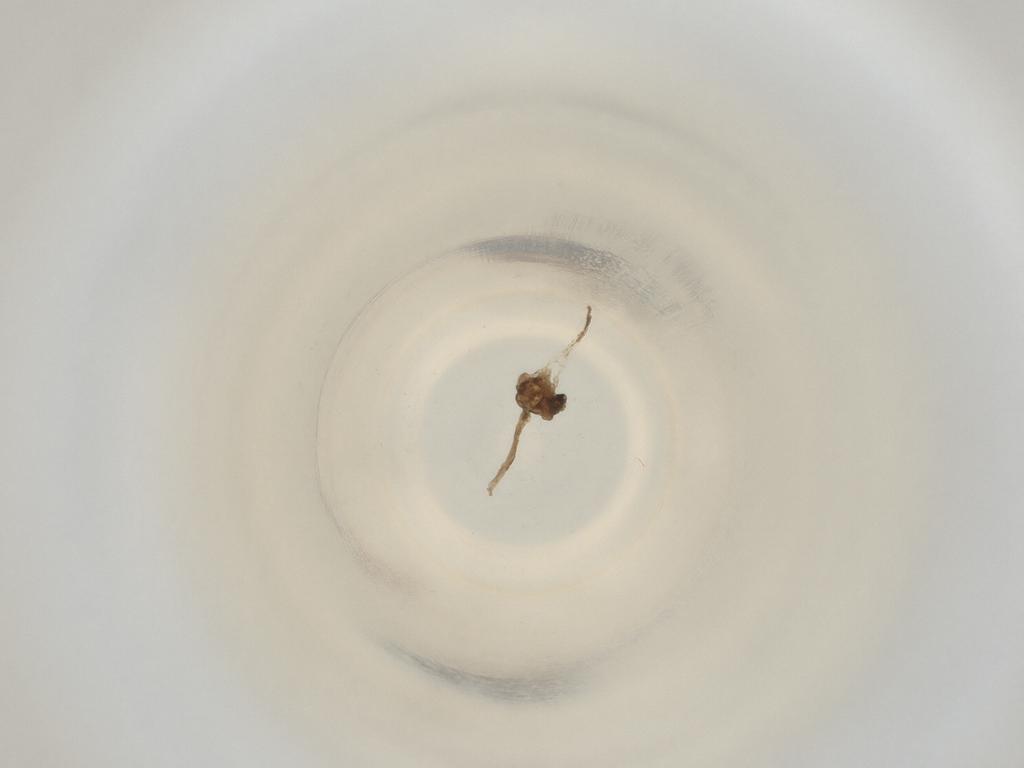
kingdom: Animalia
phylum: Arthropoda
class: Insecta
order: Diptera
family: Cecidomyiidae
